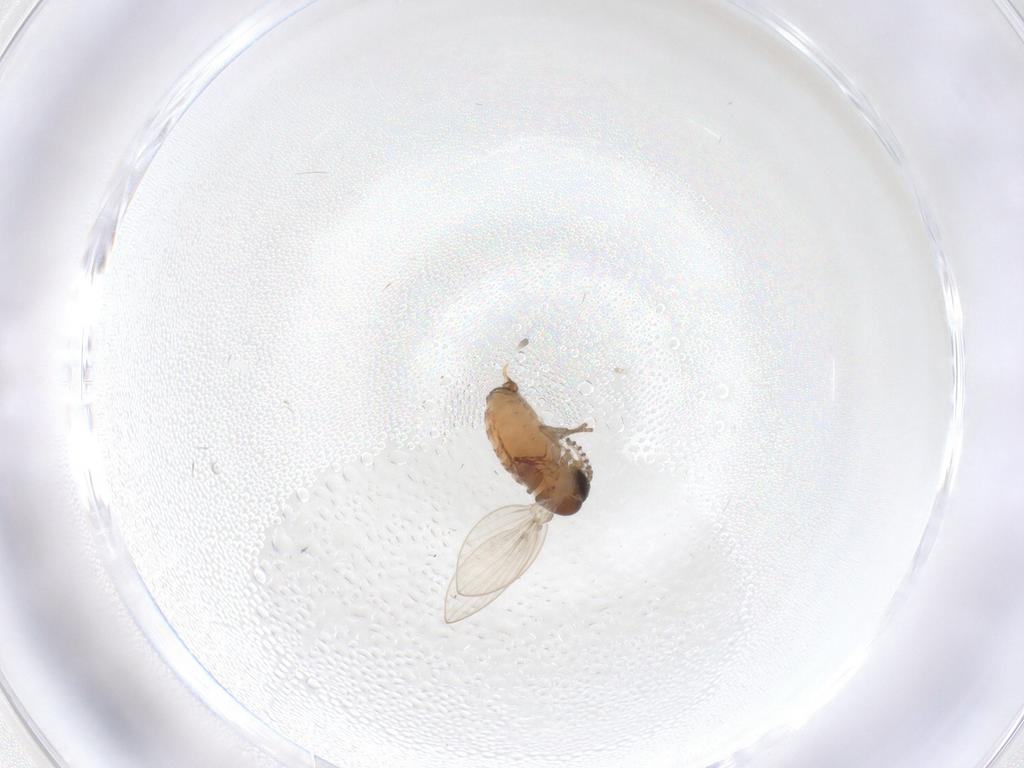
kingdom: Animalia
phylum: Arthropoda
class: Insecta
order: Diptera
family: Psychodidae
